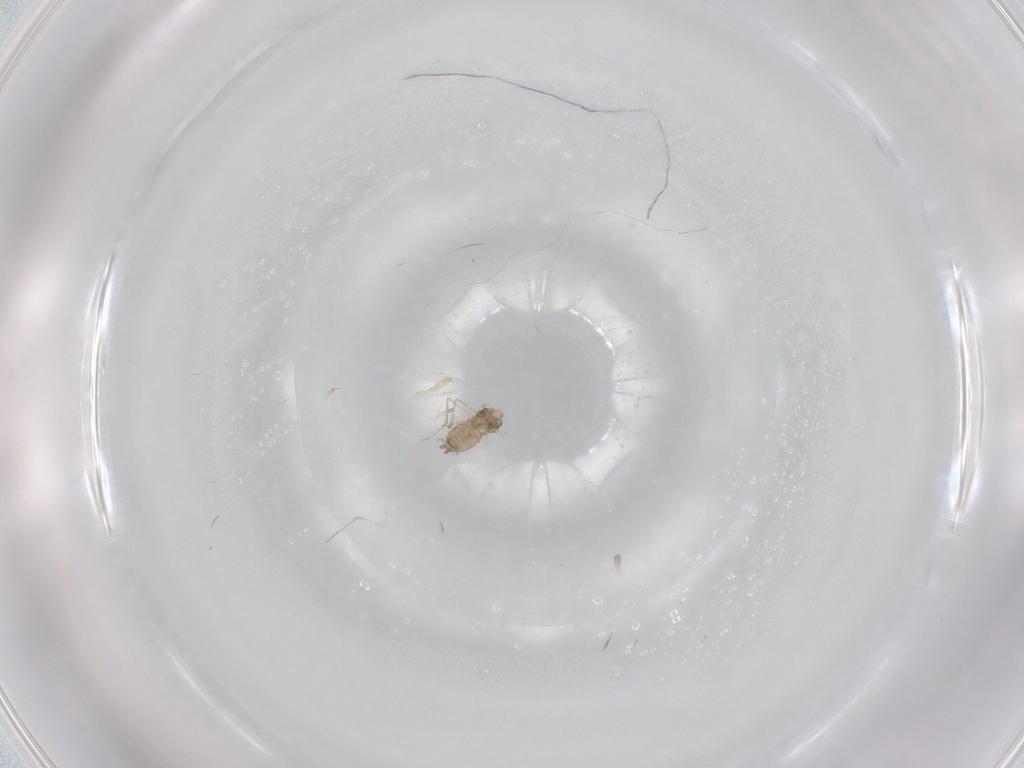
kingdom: Animalia
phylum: Arthropoda
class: Insecta
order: Diptera
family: Cecidomyiidae
